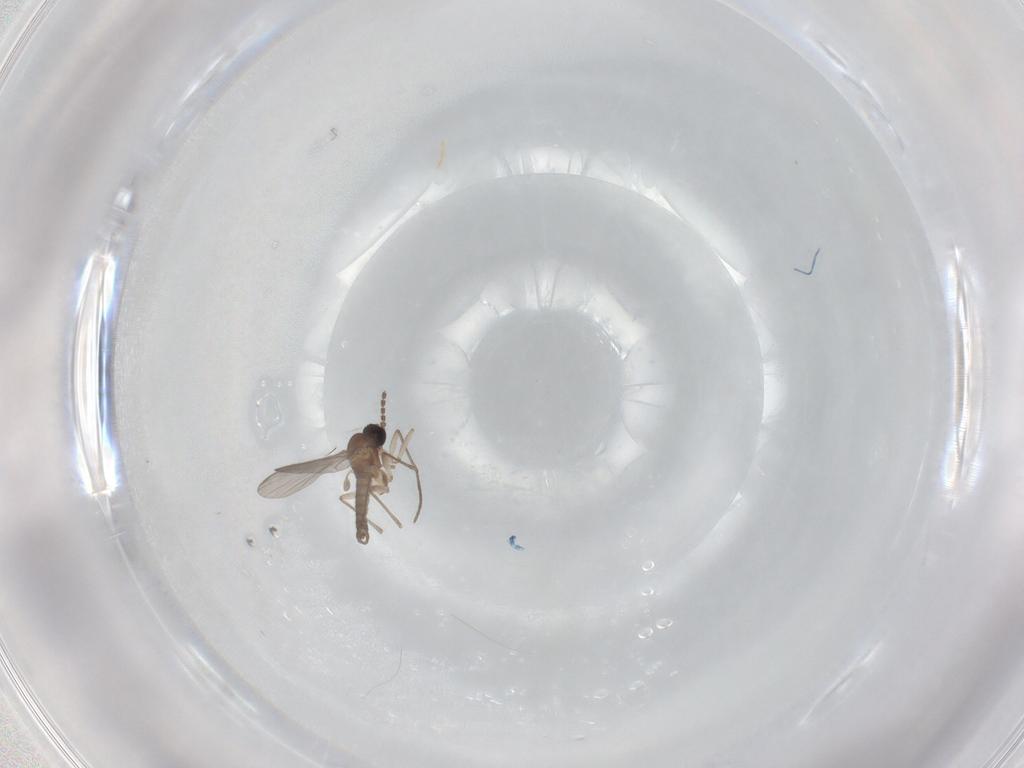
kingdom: Animalia
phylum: Arthropoda
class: Insecta
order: Diptera
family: Sciaridae
